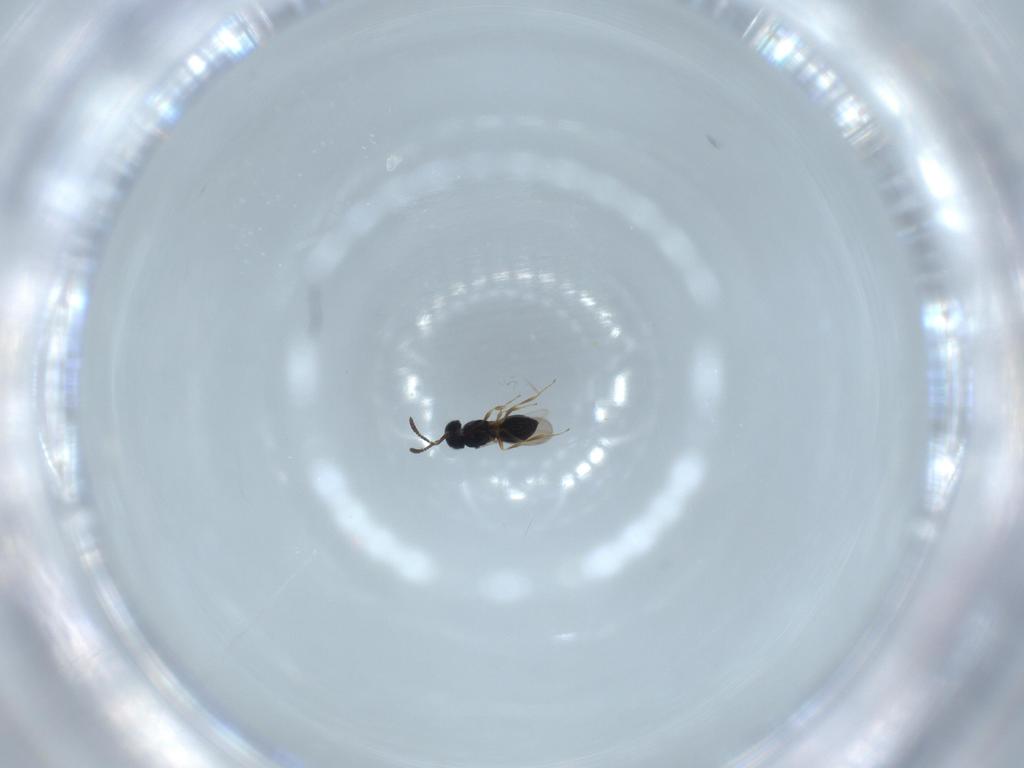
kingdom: Animalia
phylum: Arthropoda
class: Insecta
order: Hymenoptera
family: Scelionidae
